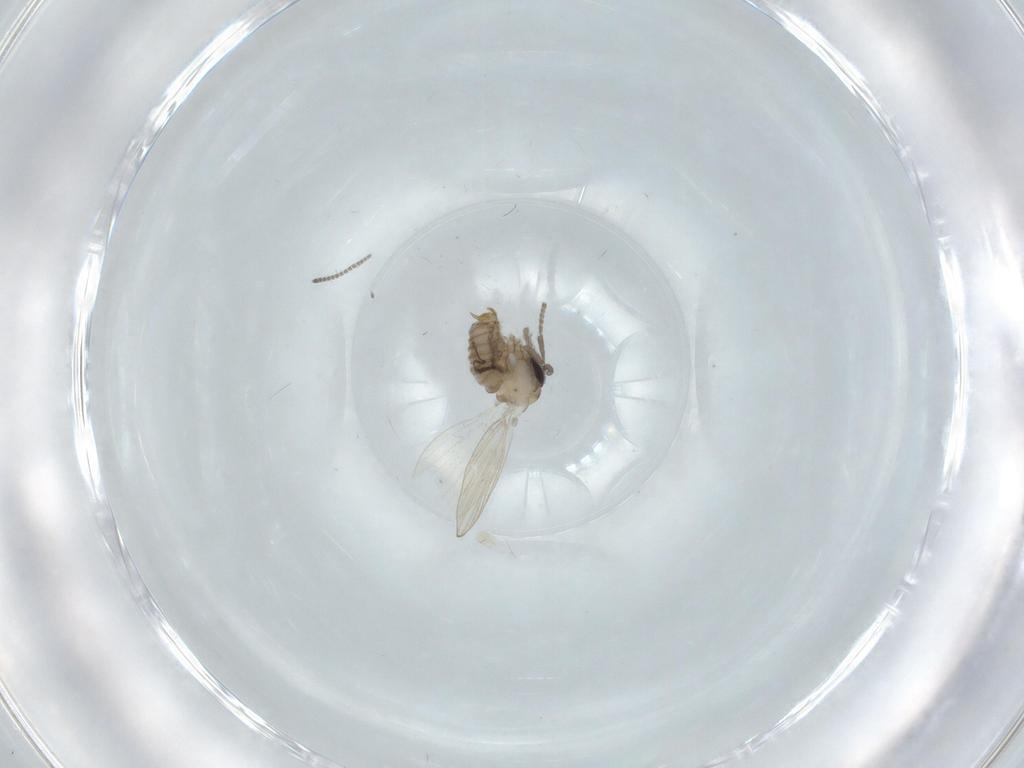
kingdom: Animalia
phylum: Arthropoda
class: Insecta
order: Diptera
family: Psychodidae
